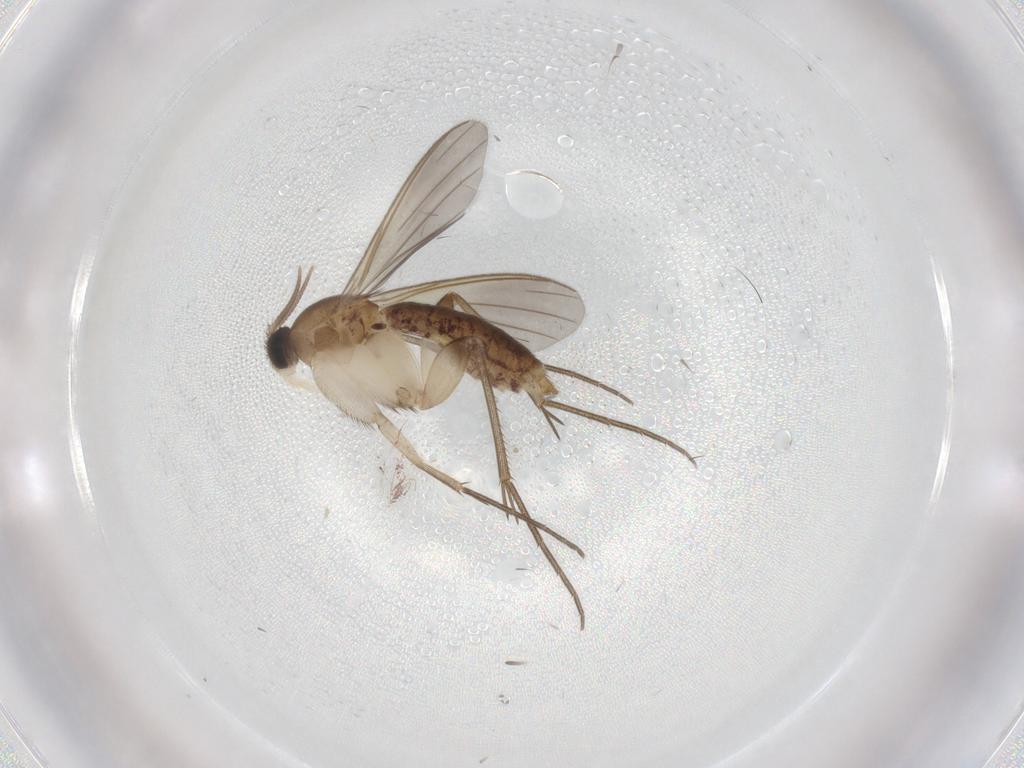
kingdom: Animalia
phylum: Arthropoda
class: Insecta
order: Diptera
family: Mycetophilidae
